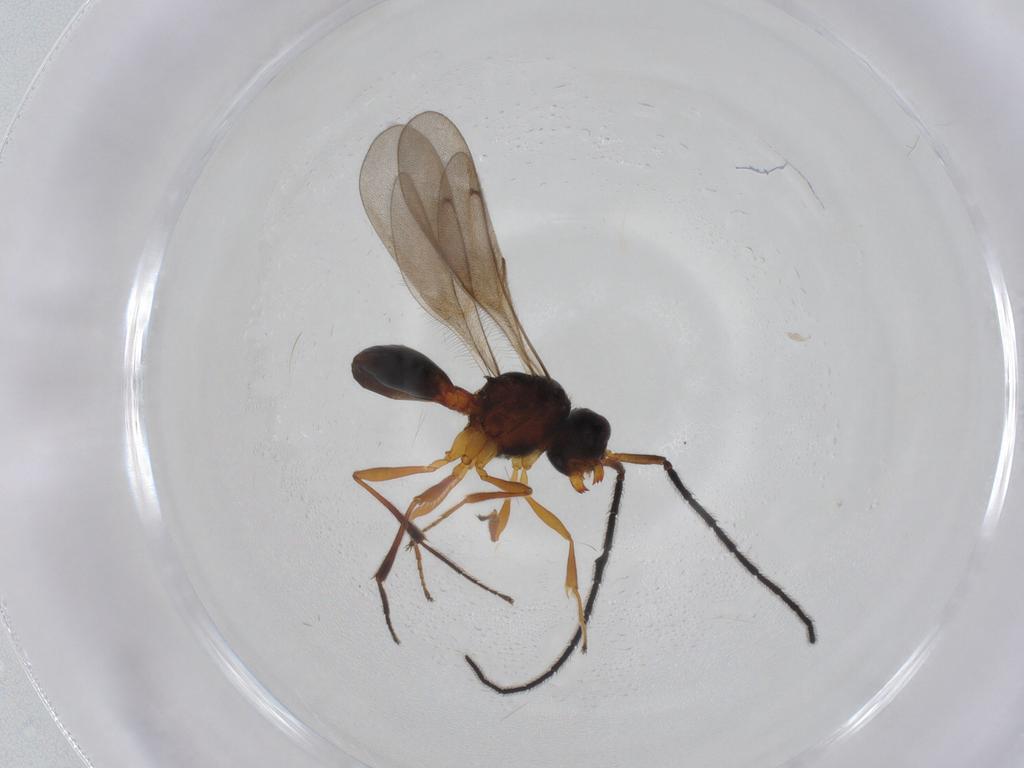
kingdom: Animalia
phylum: Arthropoda
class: Insecta
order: Hymenoptera
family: Scelionidae
